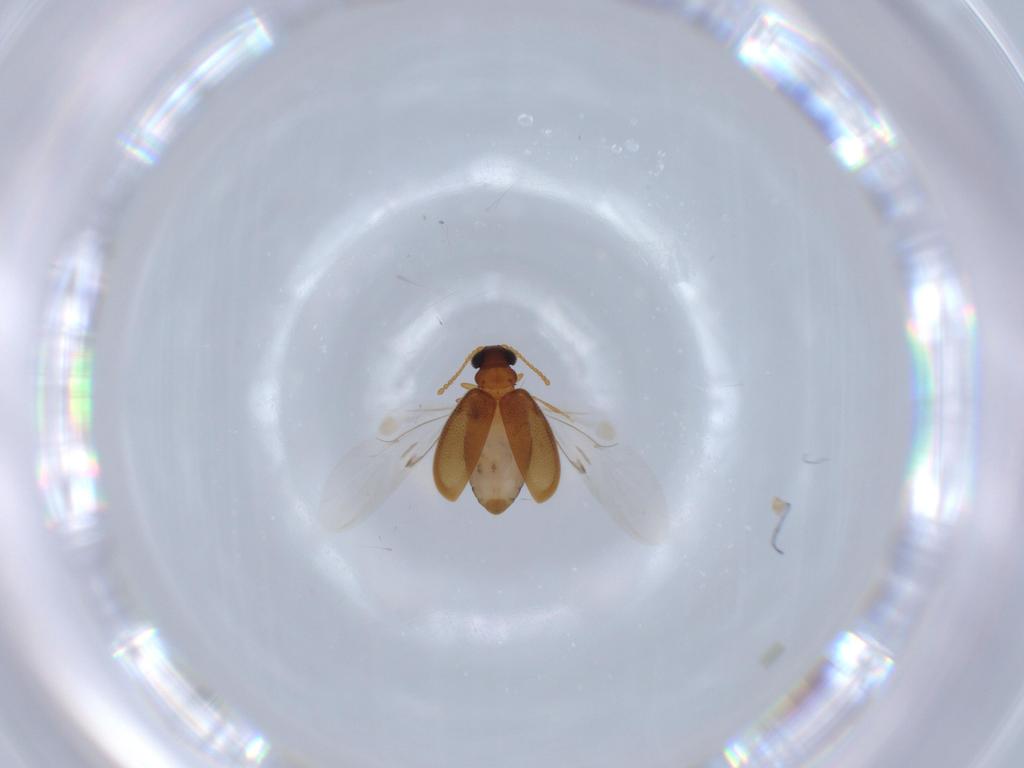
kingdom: Animalia
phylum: Arthropoda
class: Insecta
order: Coleoptera
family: Aderidae
